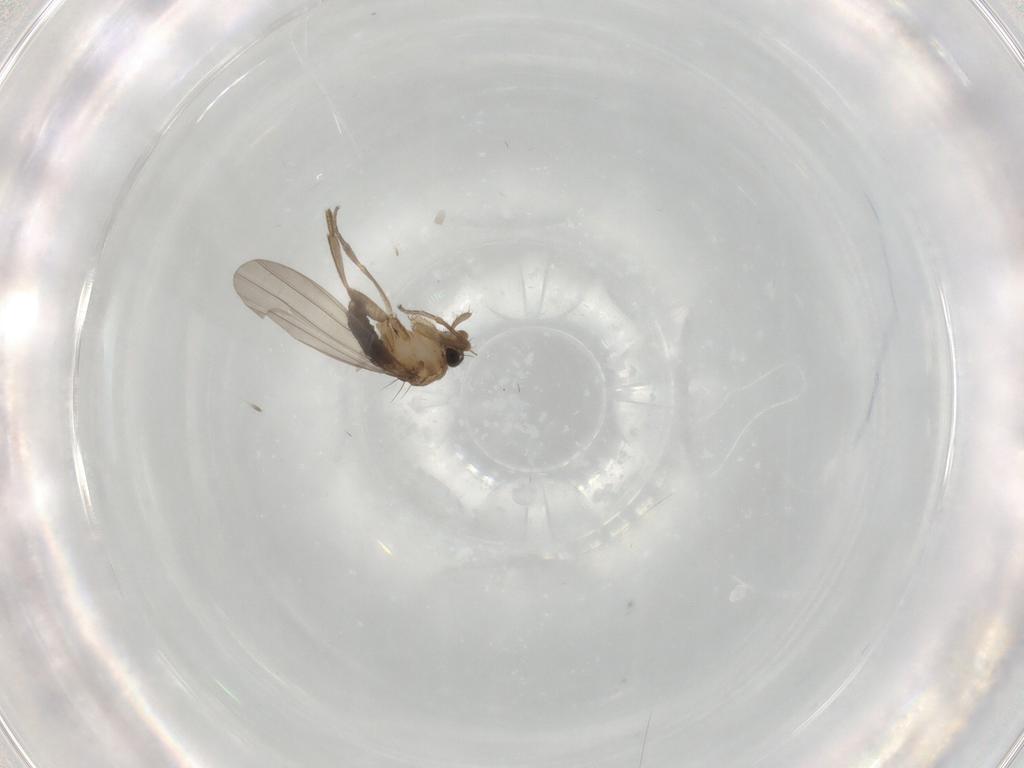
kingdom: Animalia
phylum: Arthropoda
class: Insecta
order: Diptera
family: Phoridae
